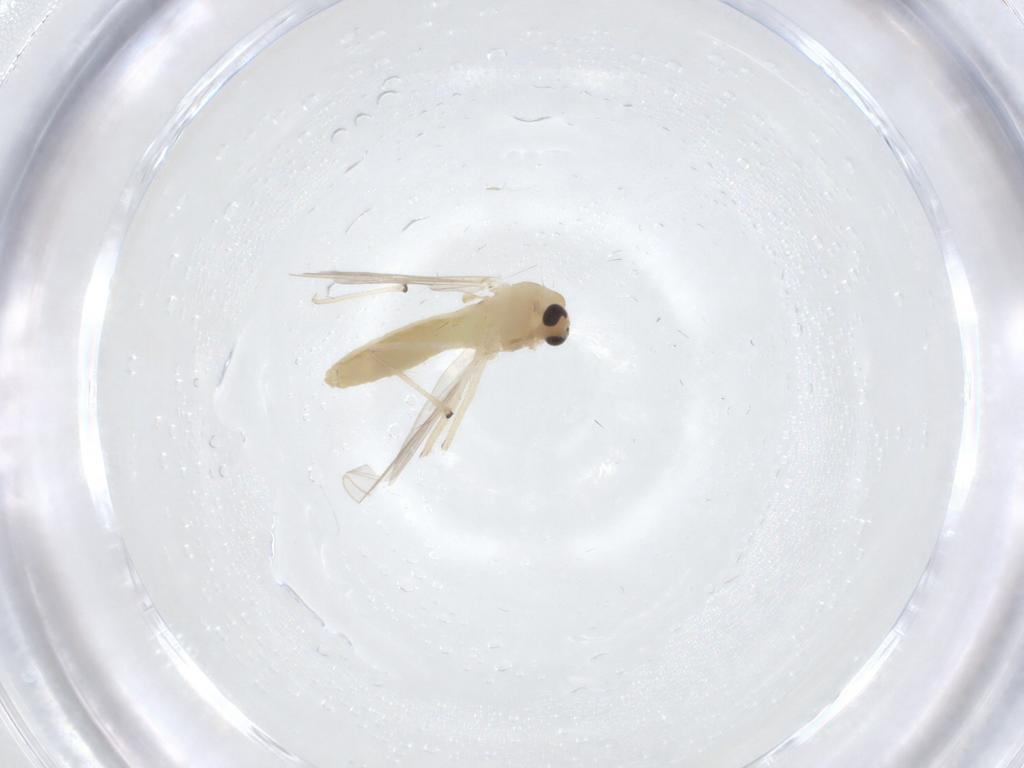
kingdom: Animalia
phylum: Arthropoda
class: Insecta
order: Diptera
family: Chironomidae
